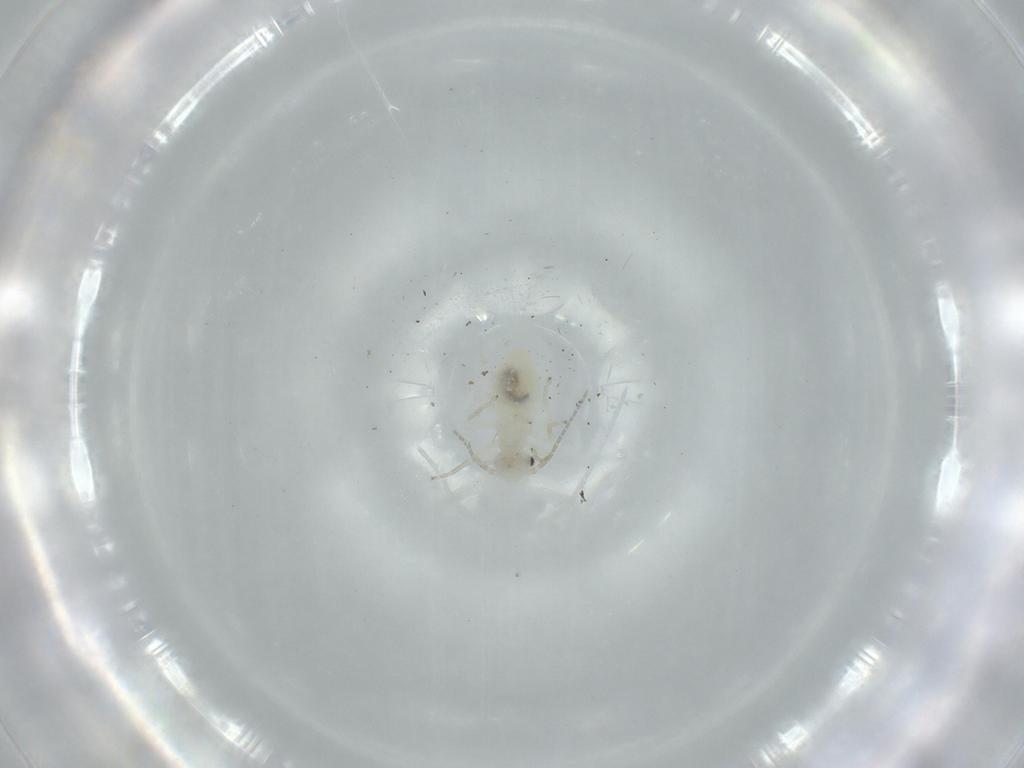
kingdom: Animalia
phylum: Arthropoda
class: Insecta
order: Psocodea
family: Caeciliusidae
